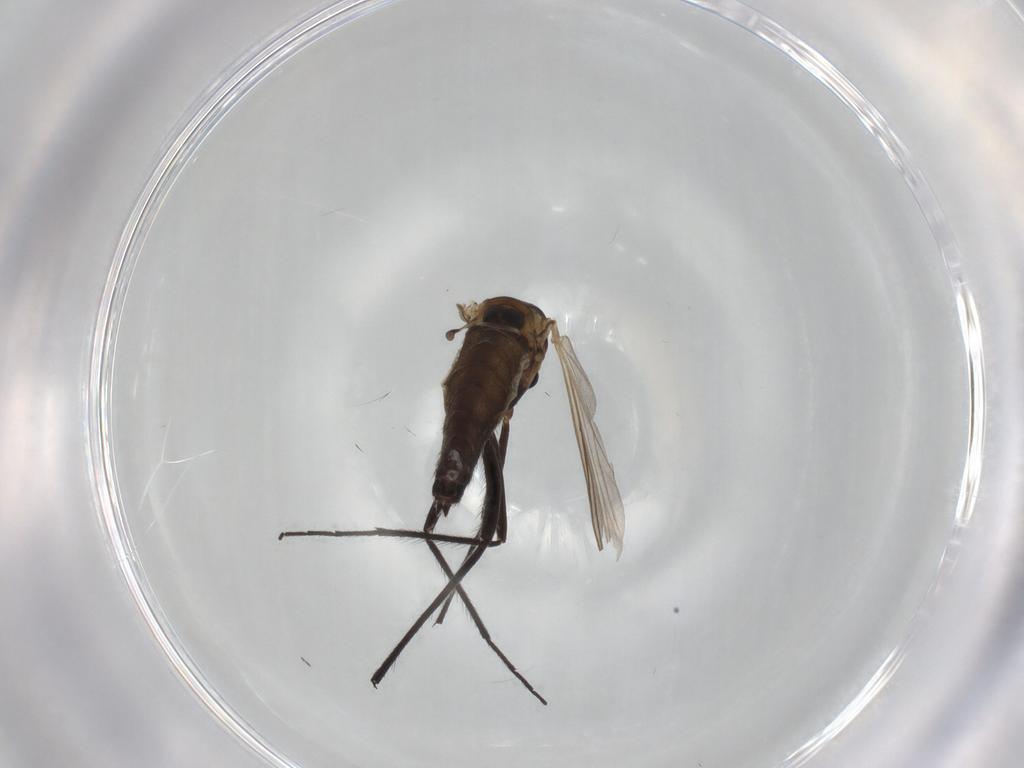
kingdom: Animalia
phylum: Arthropoda
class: Insecta
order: Diptera
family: Chironomidae
